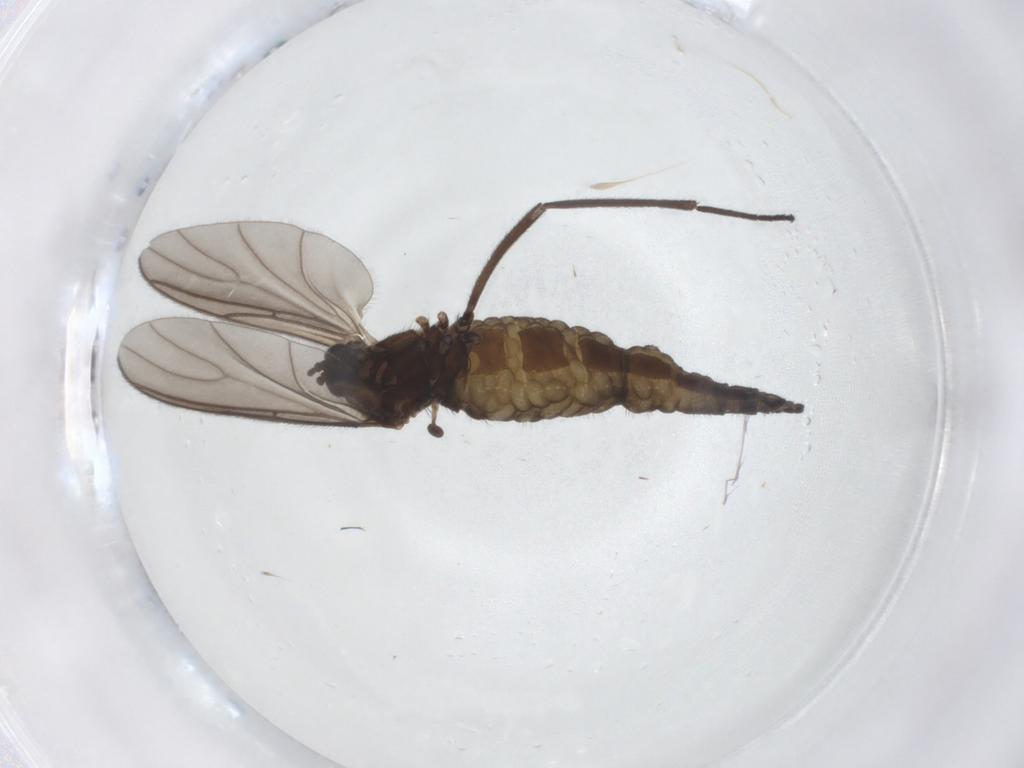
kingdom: Animalia
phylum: Arthropoda
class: Insecta
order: Diptera
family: Sciaridae
